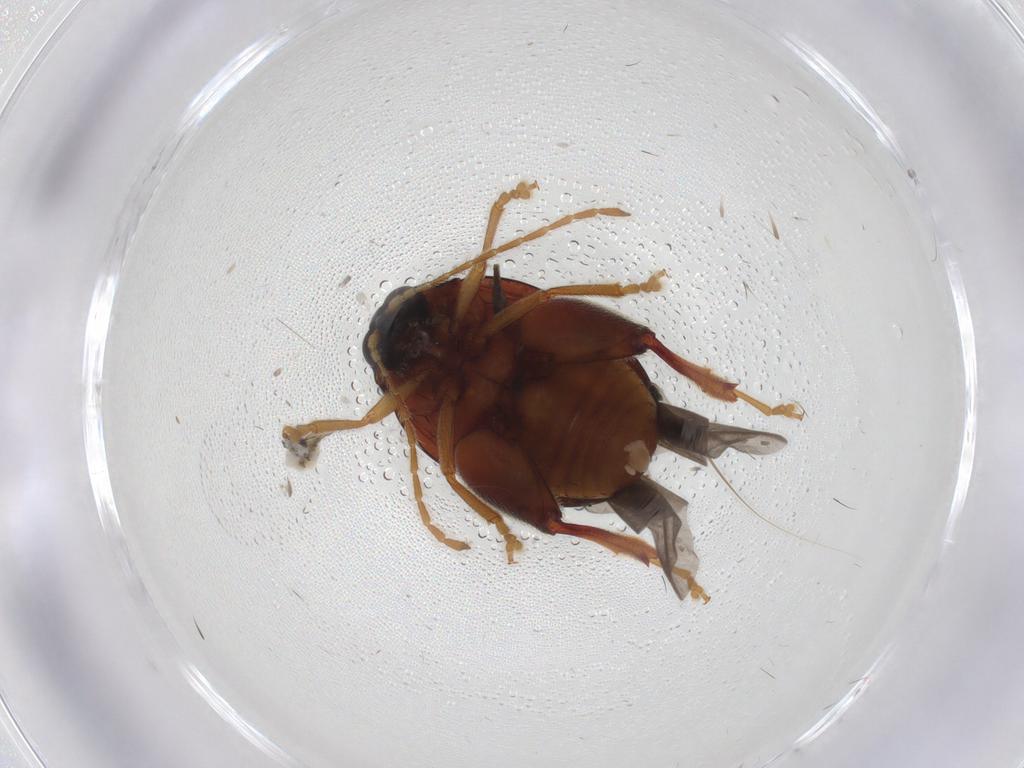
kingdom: Animalia
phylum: Arthropoda
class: Insecta
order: Coleoptera
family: Chrysomelidae
